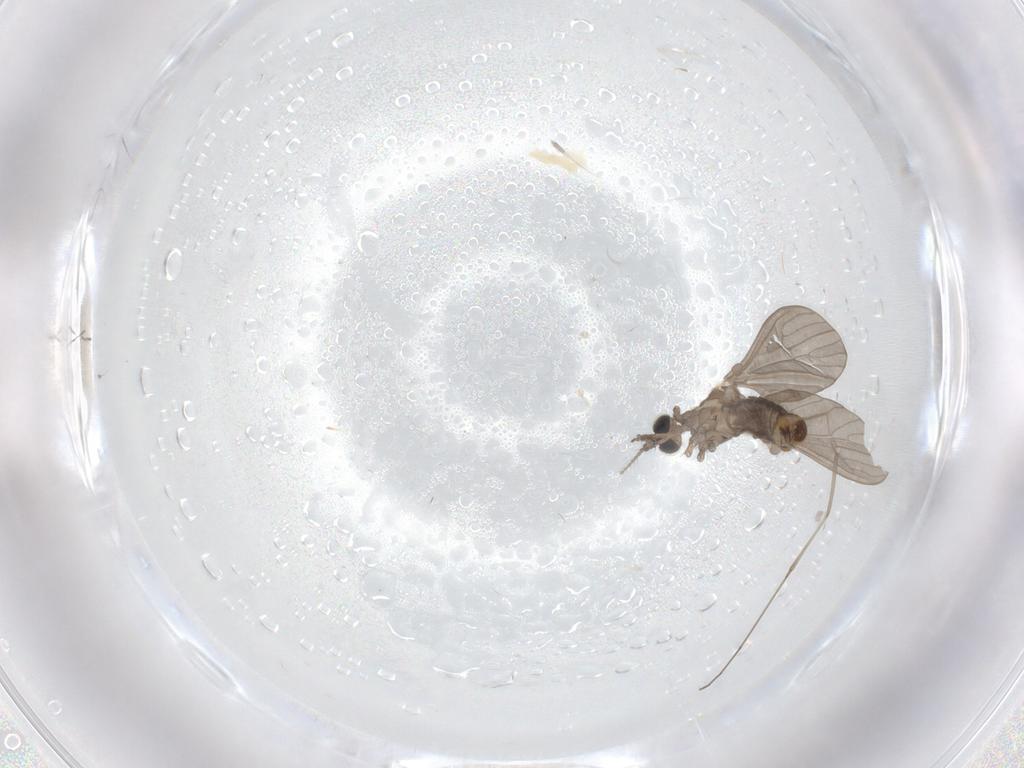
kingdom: Animalia
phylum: Arthropoda
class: Insecta
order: Diptera
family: Limoniidae
